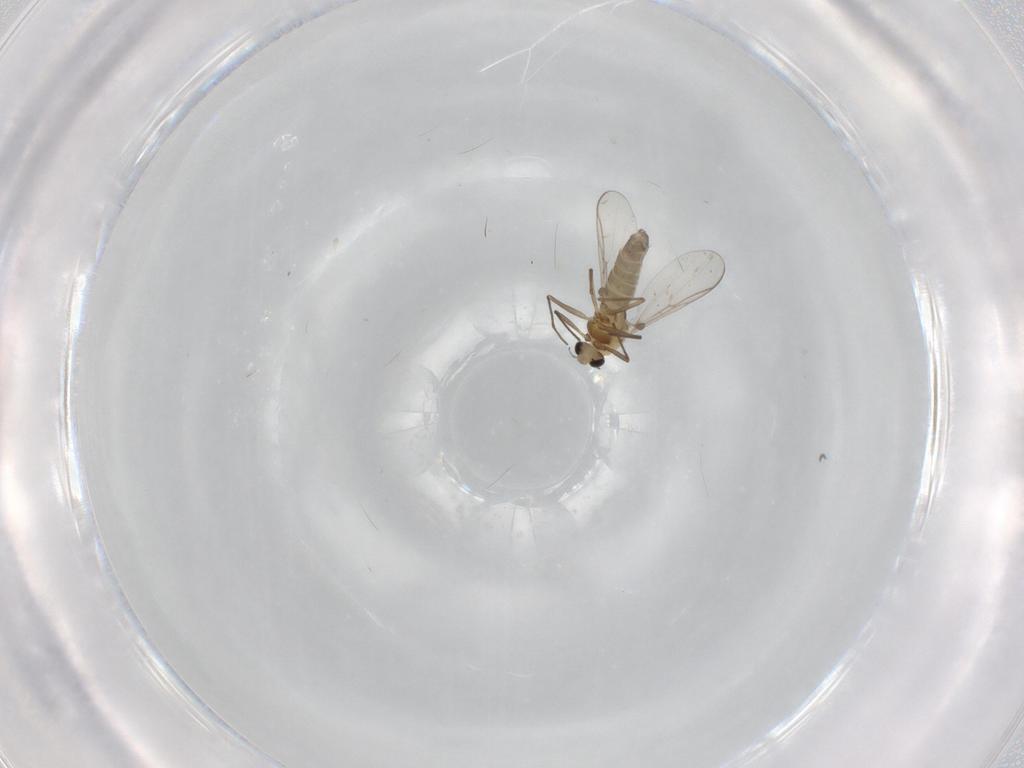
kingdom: Animalia
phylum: Arthropoda
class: Insecta
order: Diptera
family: Chironomidae
